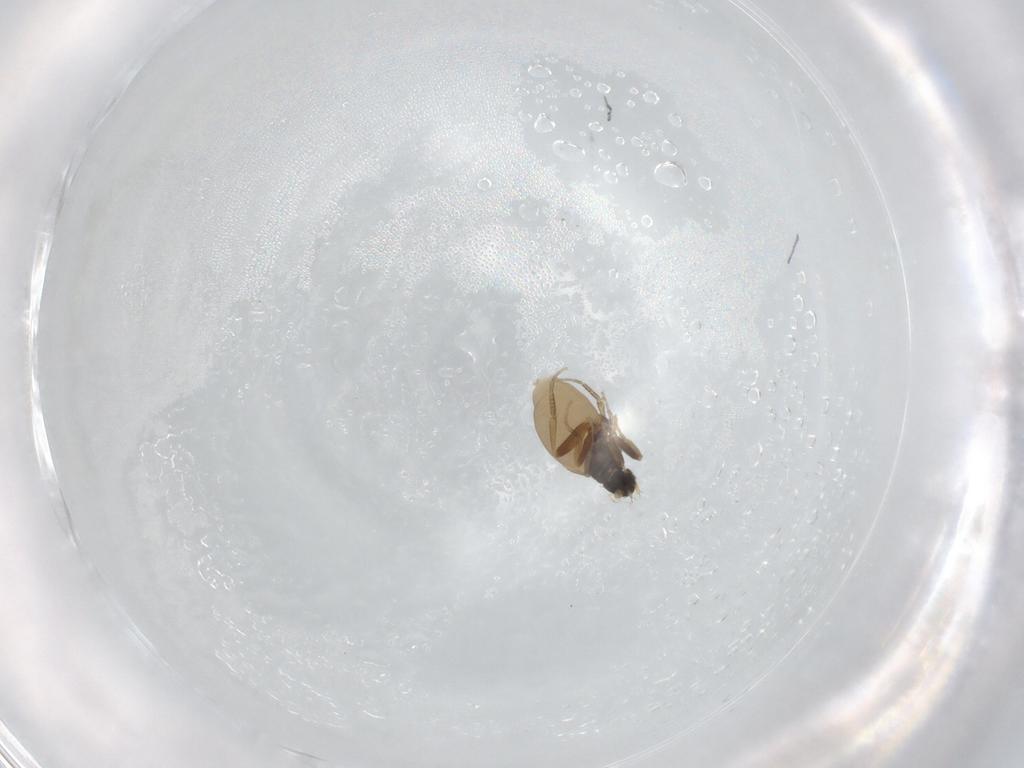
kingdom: Animalia
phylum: Arthropoda
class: Insecta
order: Diptera
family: Phoridae
